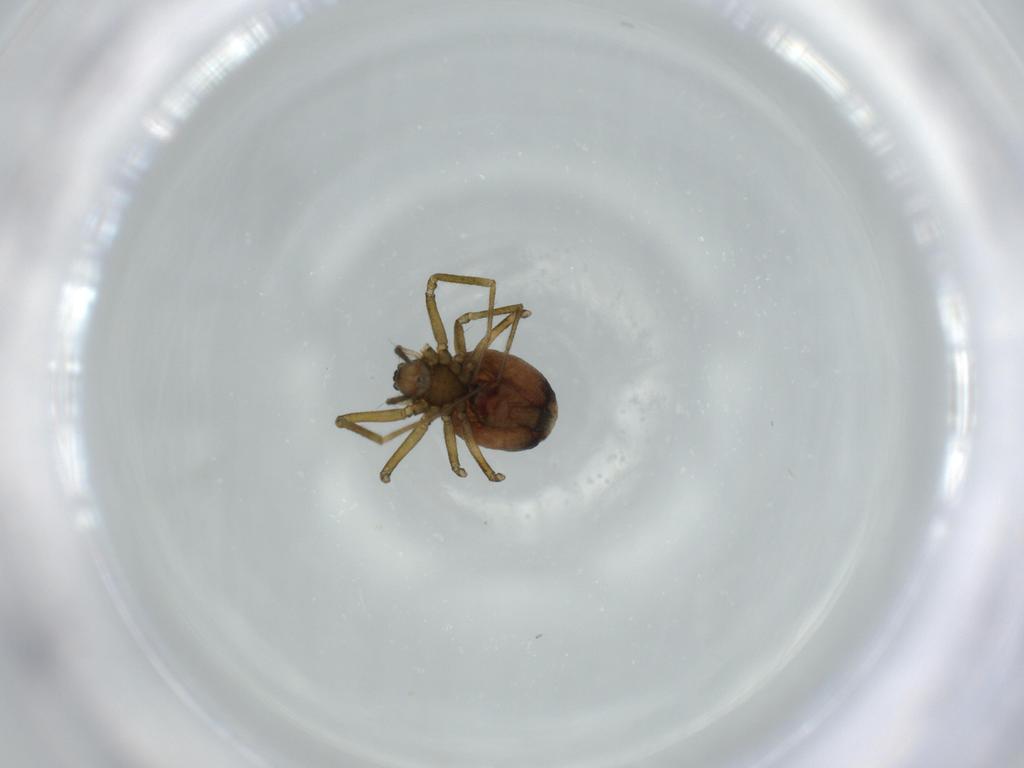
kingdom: Animalia
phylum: Arthropoda
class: Arachnida
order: Araneae
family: Linyphiidae
